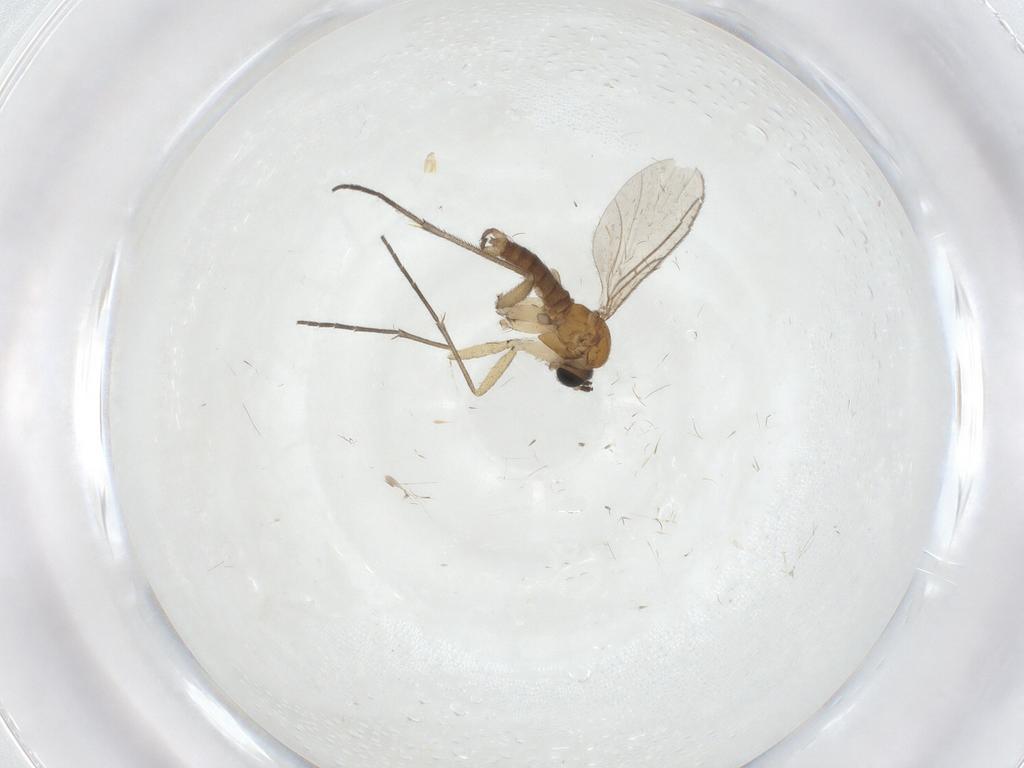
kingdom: Animalia
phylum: Arthropoda
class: Insecta
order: Diptera
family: Sciaridae
